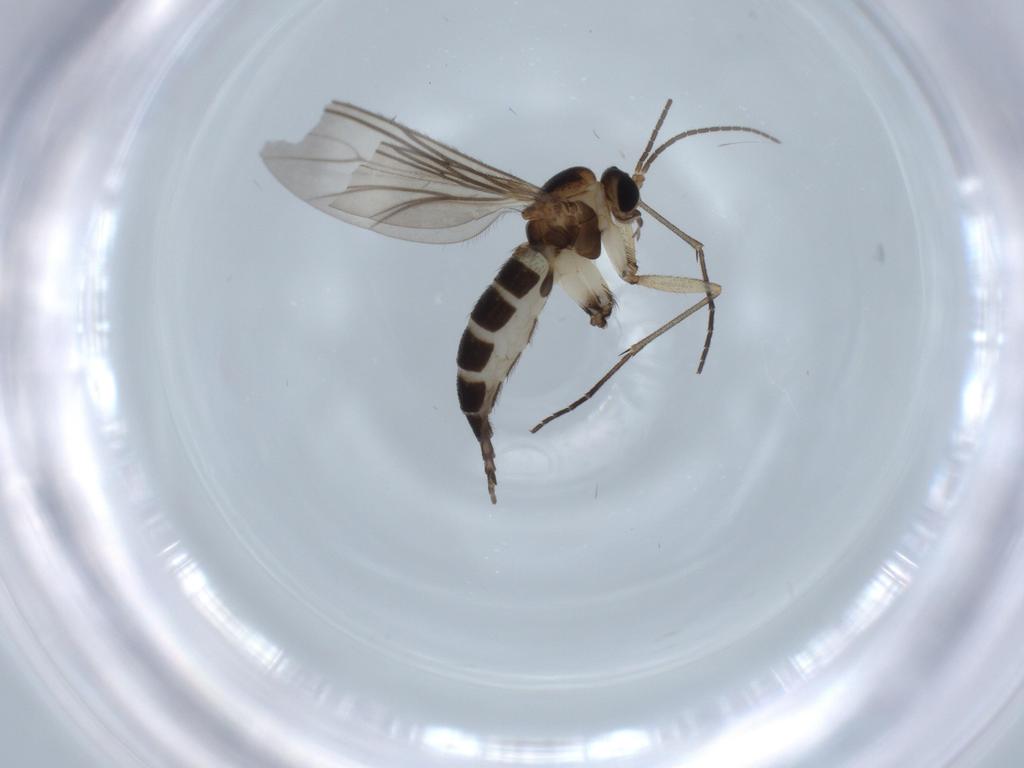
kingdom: Animalia
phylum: Arthropoda
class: Insecta
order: Diptera
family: Sciaridae
